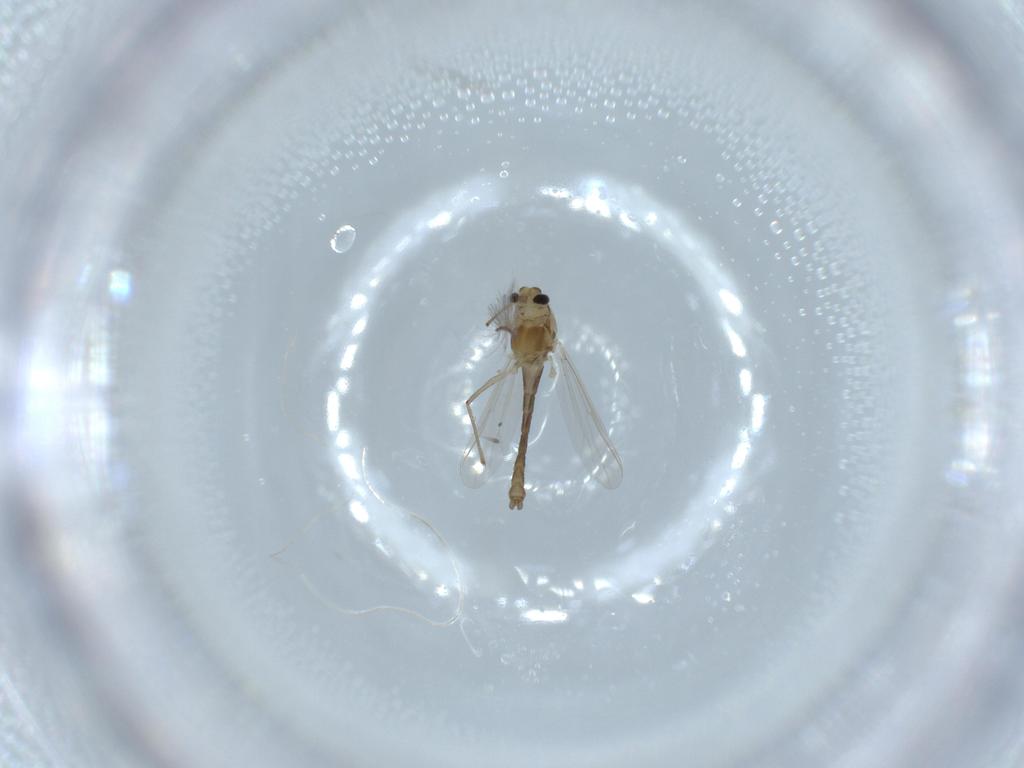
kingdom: Animalia
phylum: Arthropoda
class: Insecta
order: Diptera
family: Chironomidae
